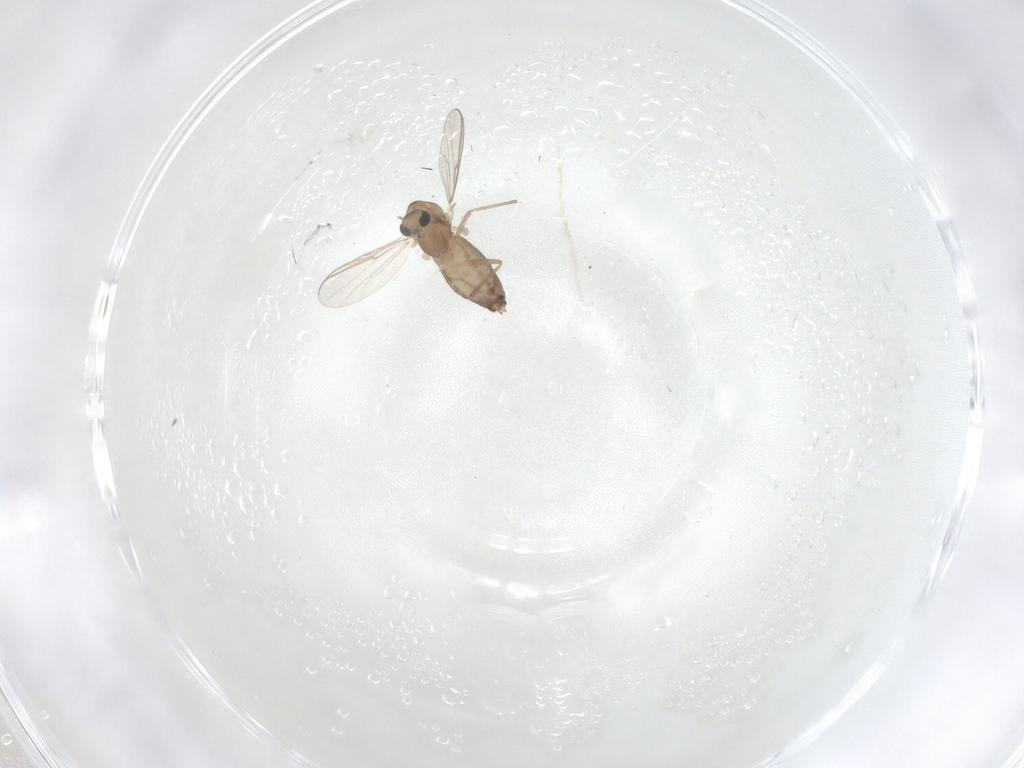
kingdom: Animalia
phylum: Arthropoda
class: Insecta
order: Diptera
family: Chironomidae
